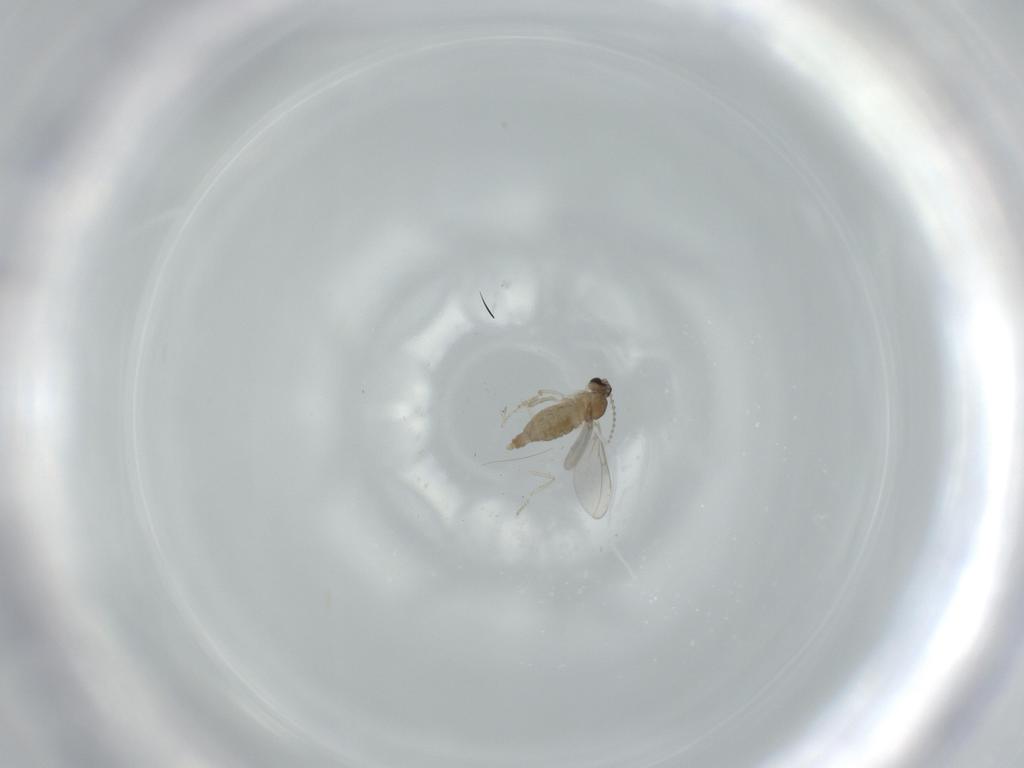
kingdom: Animalia
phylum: Arthropoda
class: Insecta
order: Diptera
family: Cecidomyiidae
